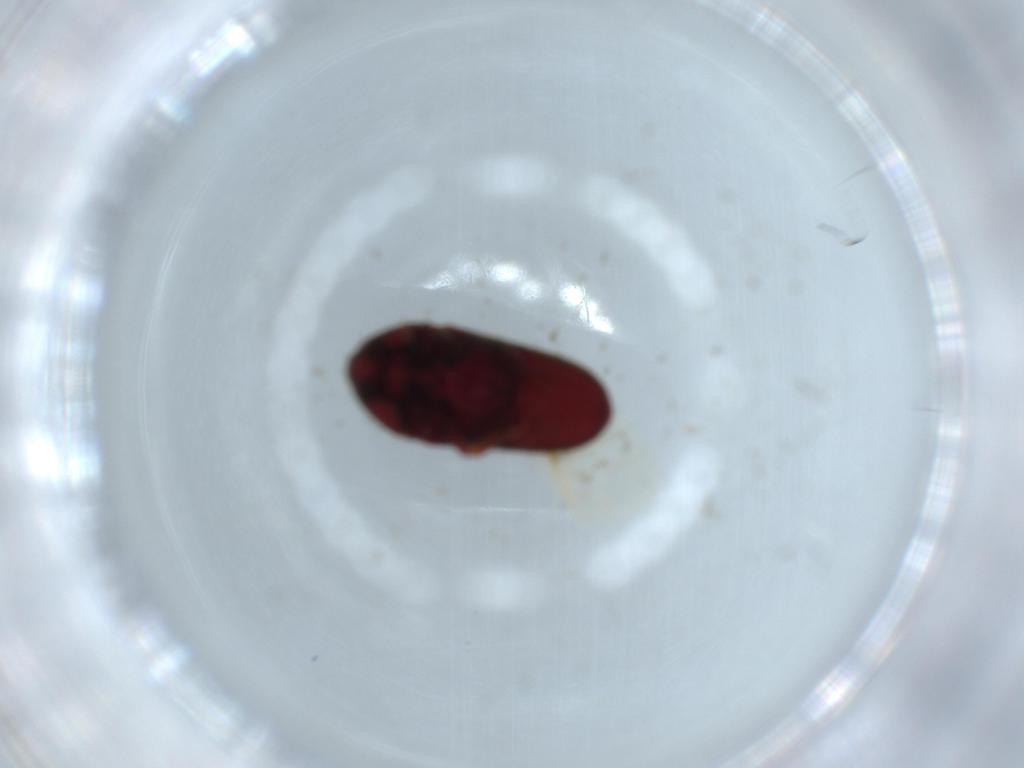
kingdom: Animalia
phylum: Arthropoda
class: Insecta
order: Coleoptera
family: Throscidae
